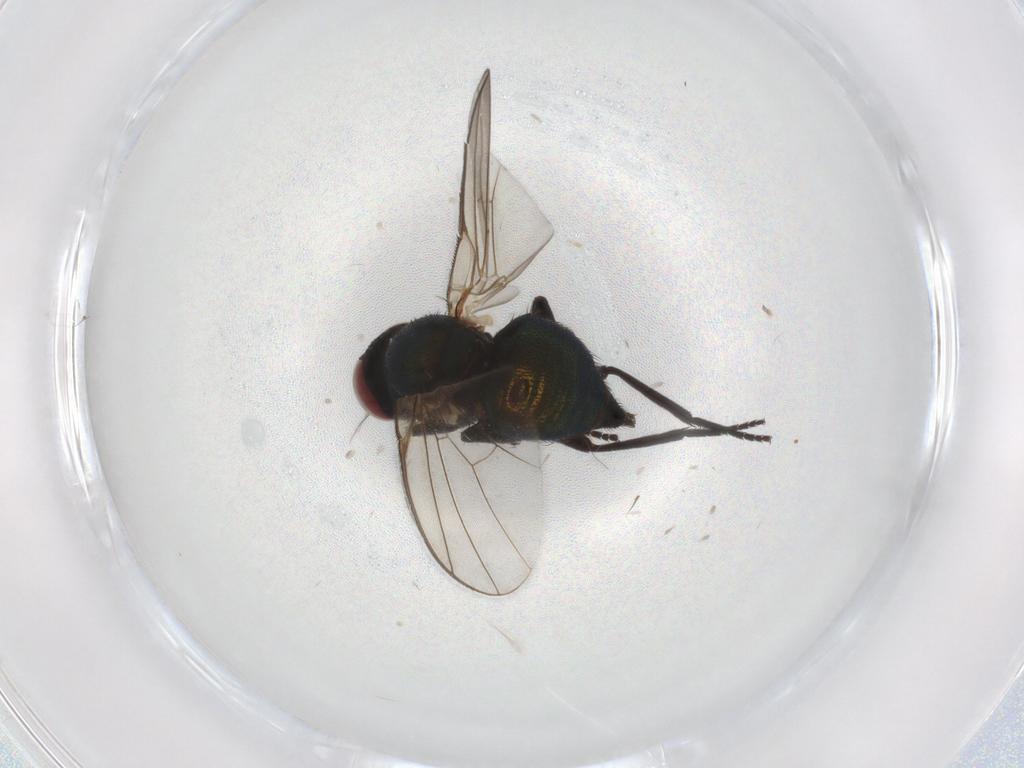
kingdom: Animalia
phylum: Arthropoda
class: Insecta
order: Diptera
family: Agromyzidae
